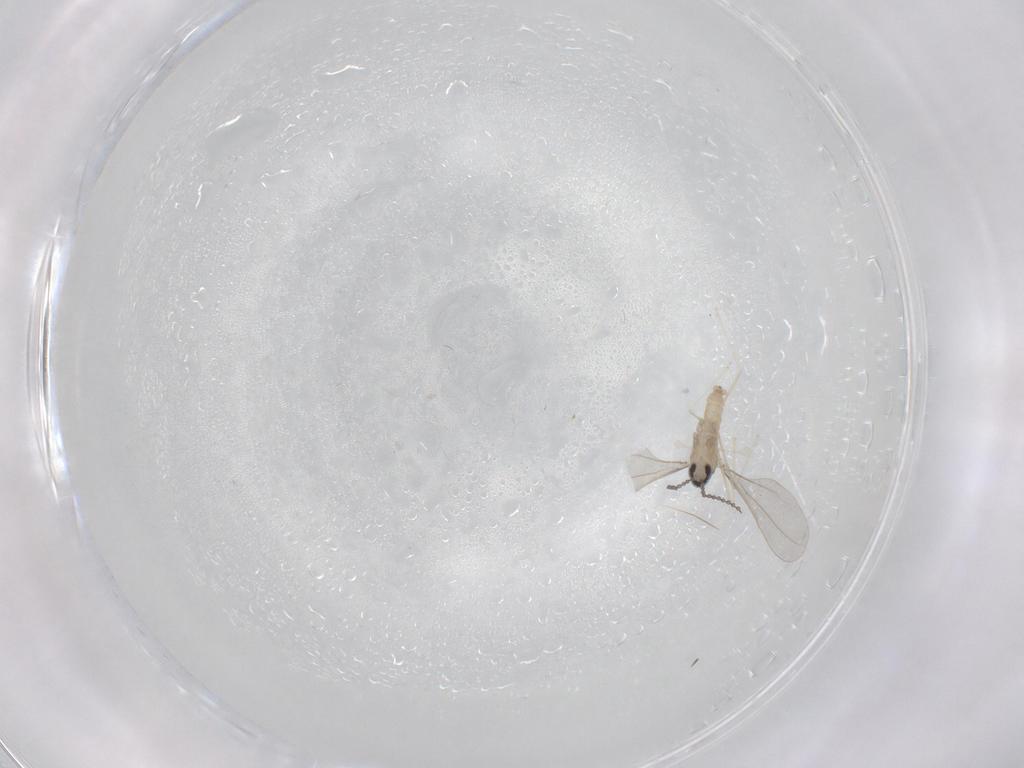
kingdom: Animalia
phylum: Arthropoda
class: Insecta
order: Diptera
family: Cecidomyiidae
